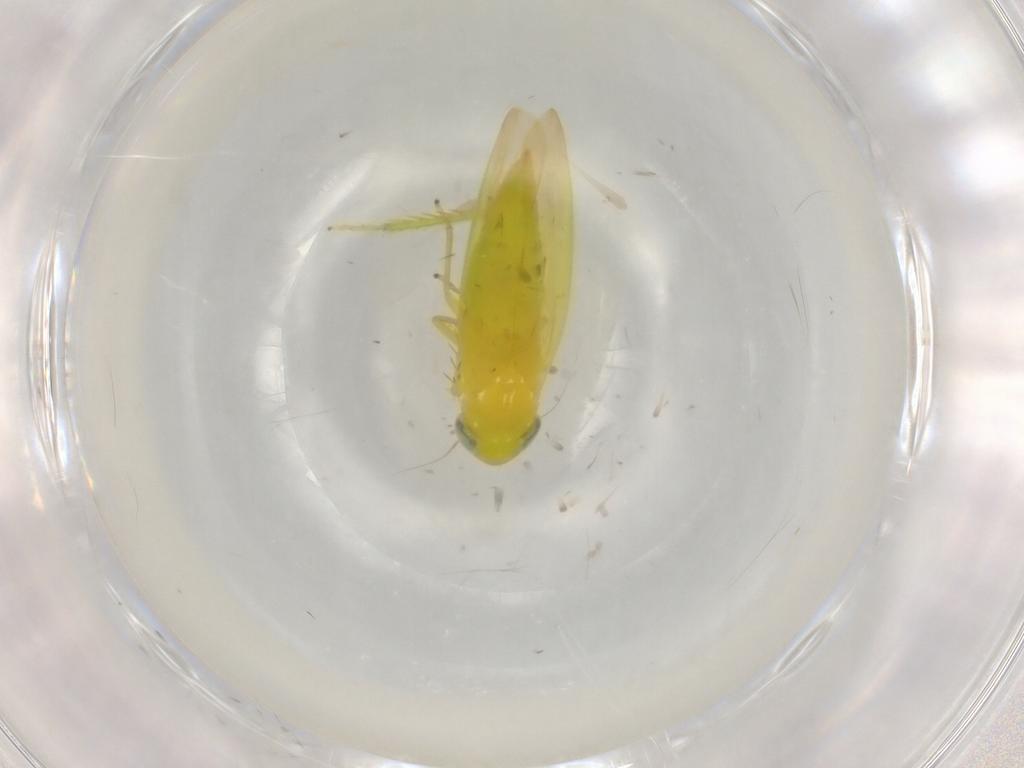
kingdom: Animalia
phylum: Arthropoda
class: Insecta
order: Hemiptera
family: Cicadellidae
